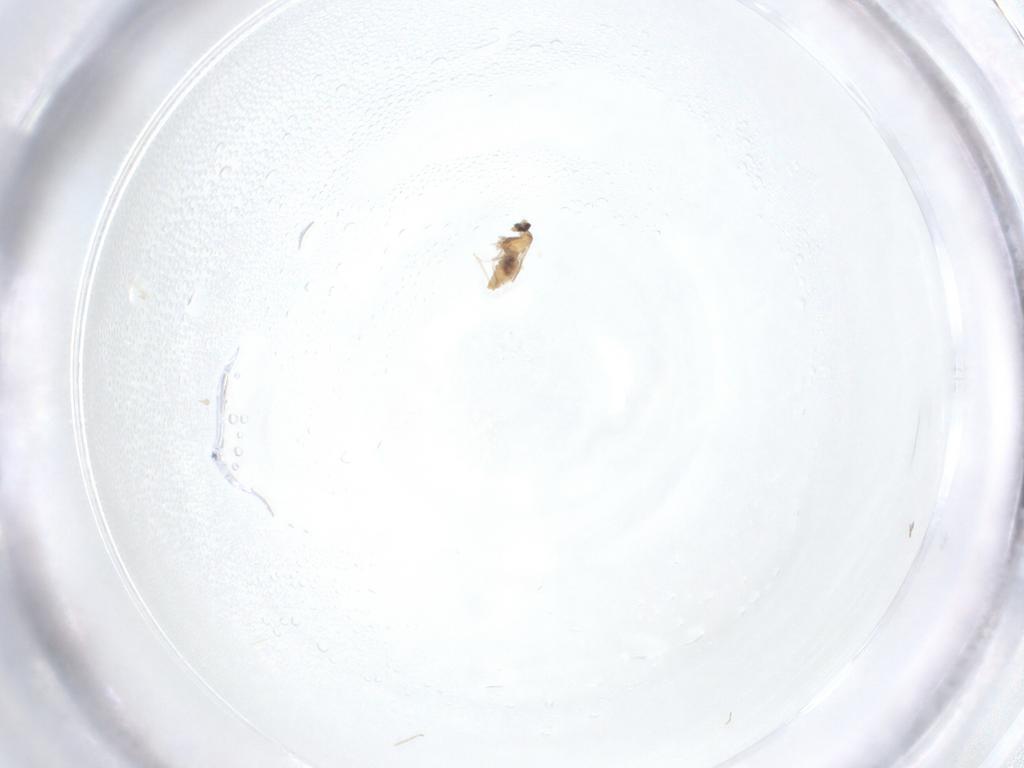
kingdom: Animalia
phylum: Arthropoda
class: Insecta
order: Diptera
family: Cecidomyiidae
